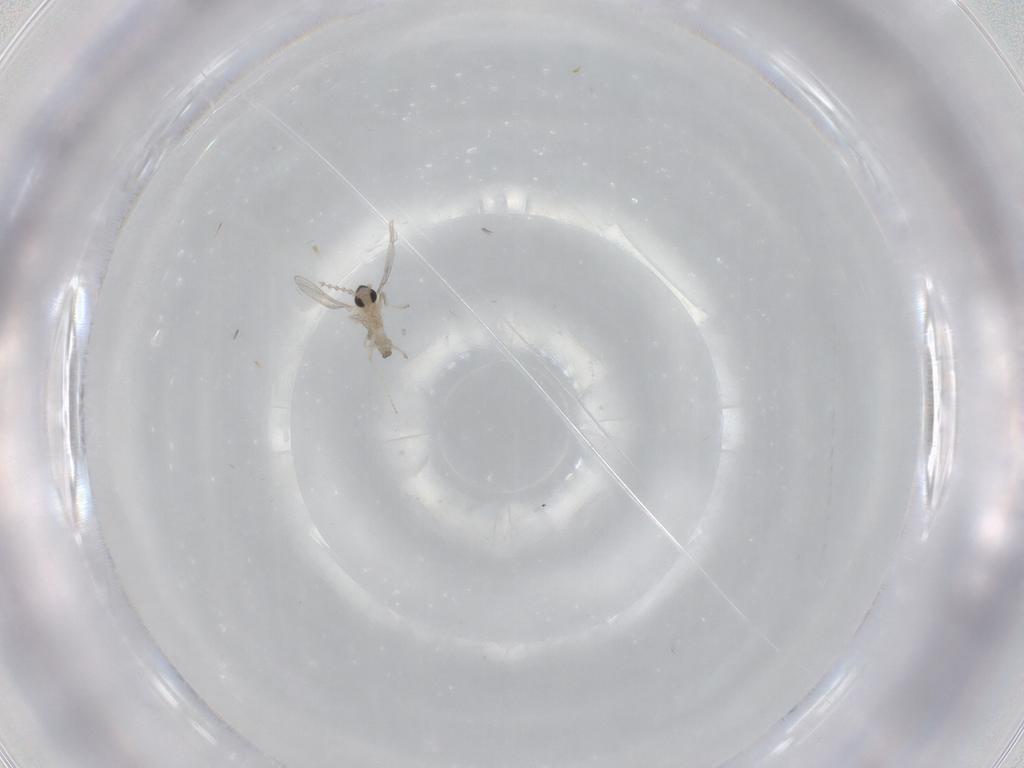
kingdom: Animalia
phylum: Arthropoda
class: Insecta
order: Diptera
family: Cecidomyiidae
